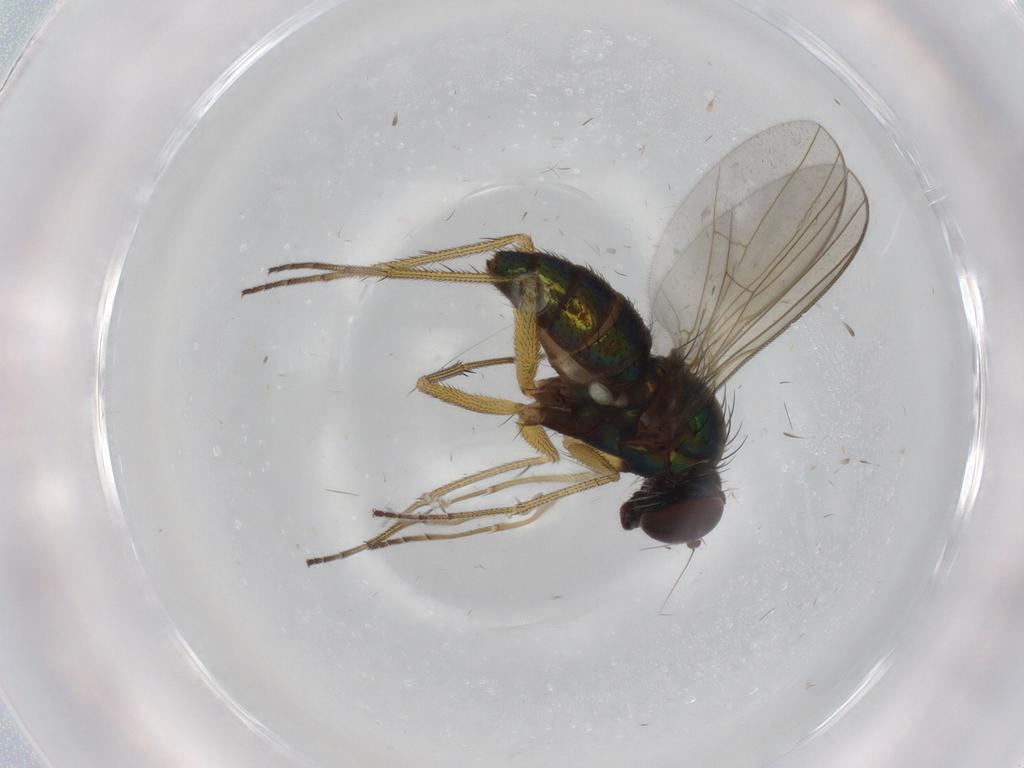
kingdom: Animalia
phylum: Arthropoda
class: Insecta
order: Diptera
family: Dolichopodidae
